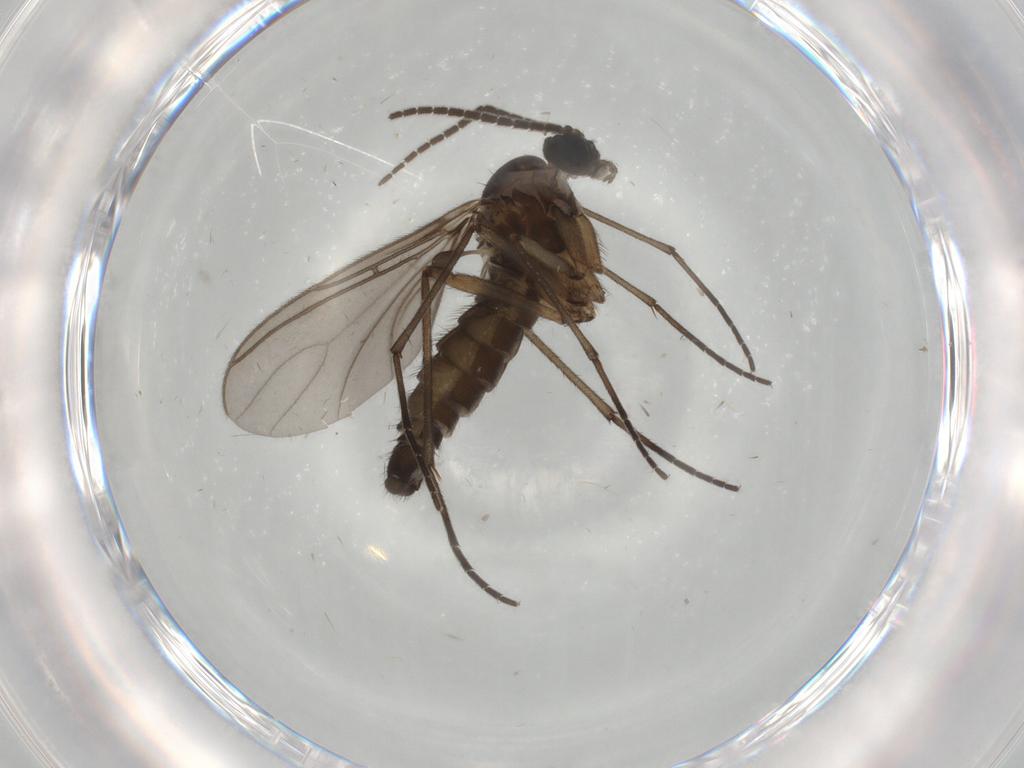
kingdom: Animalia
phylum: Arthropoda
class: Insecta
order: Diptera
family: Sciaridae
